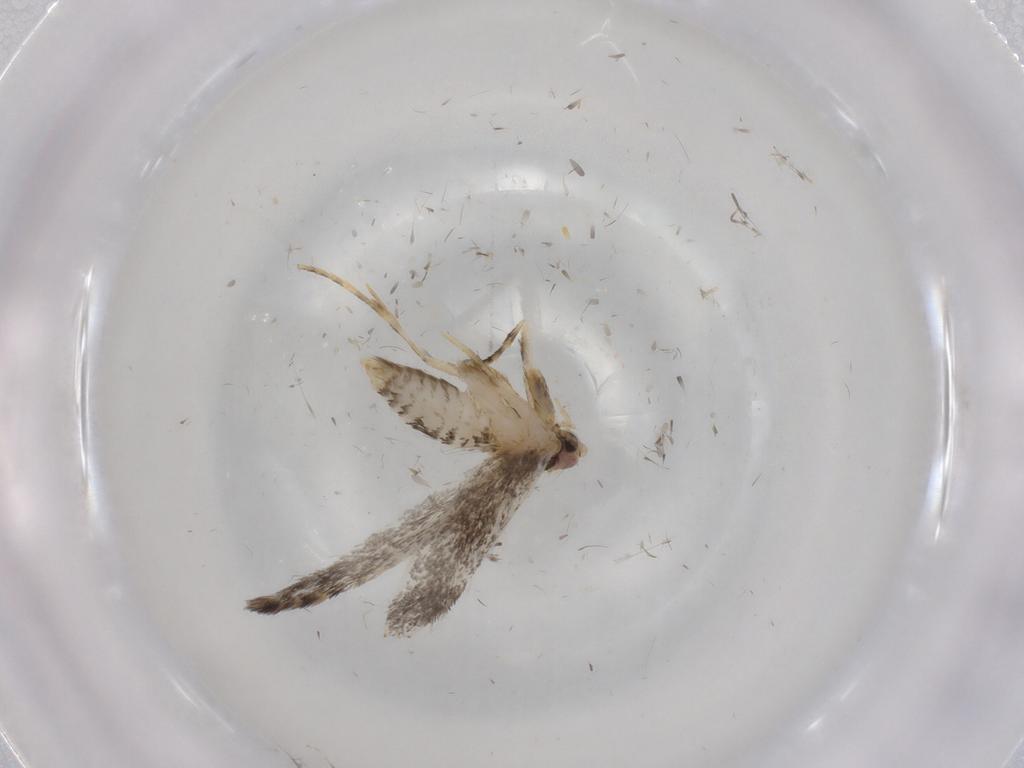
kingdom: Animalia
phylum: Arthropoda
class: Insecta
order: Lepidoptera
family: Tineidae
